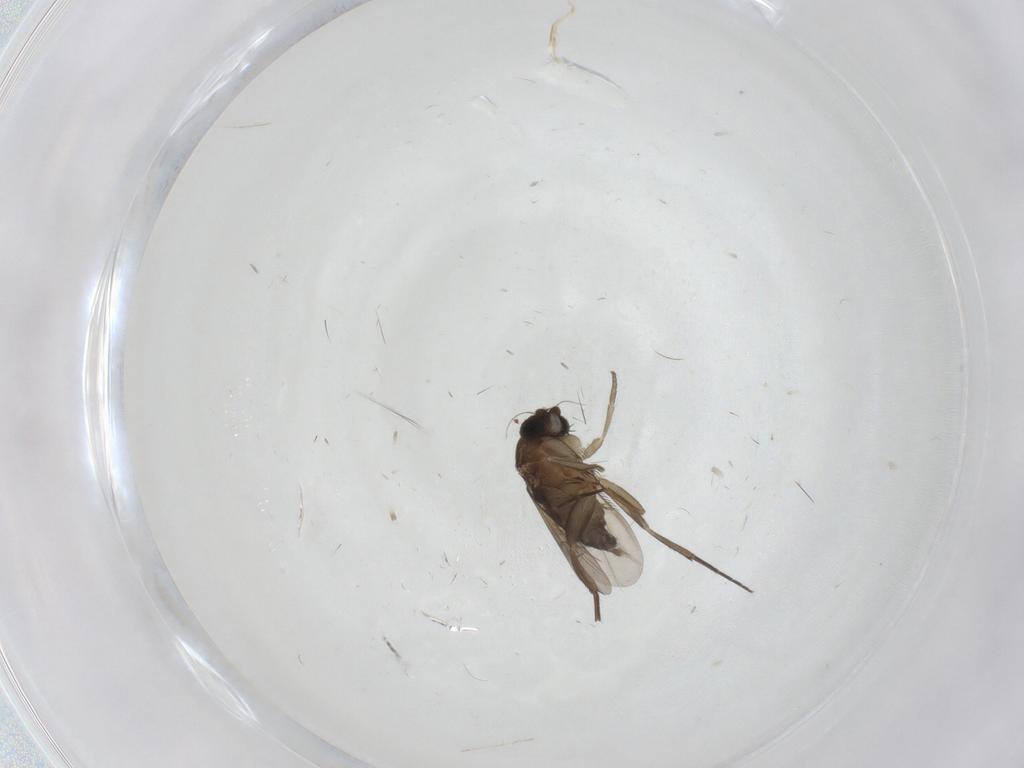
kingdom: Animalia
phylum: Arthropoda
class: Insecta
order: Diptera
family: Phoridae
